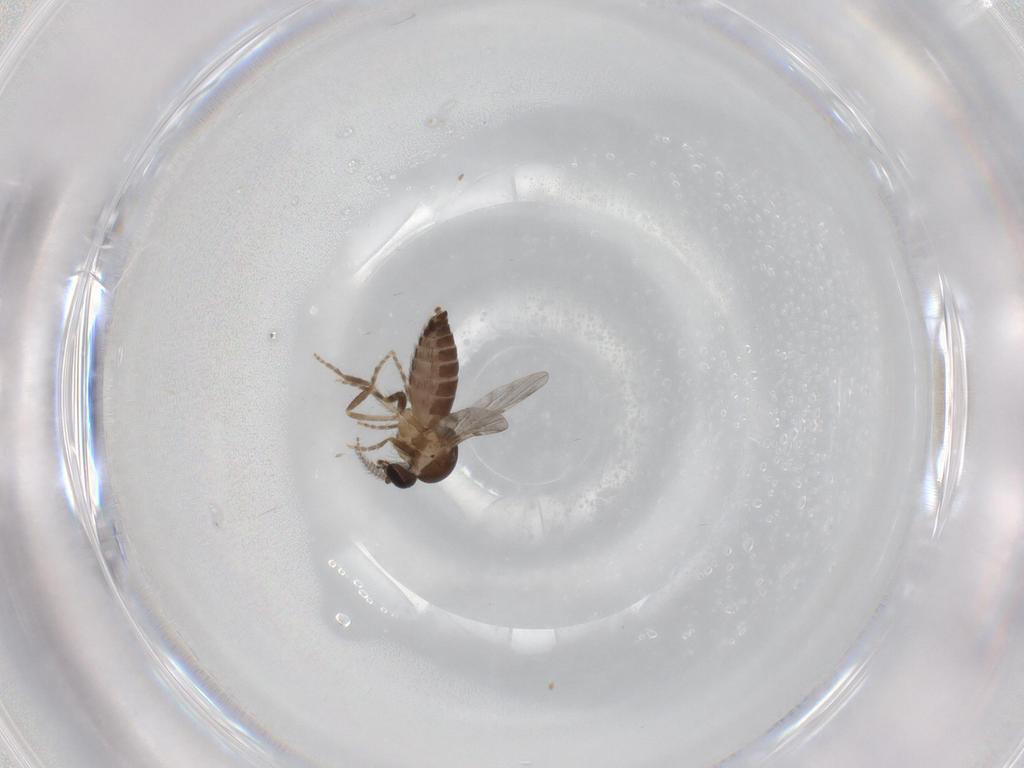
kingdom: Animalia
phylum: Arthropoda
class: Insecta
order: Diptera
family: Ceratopogonidae
